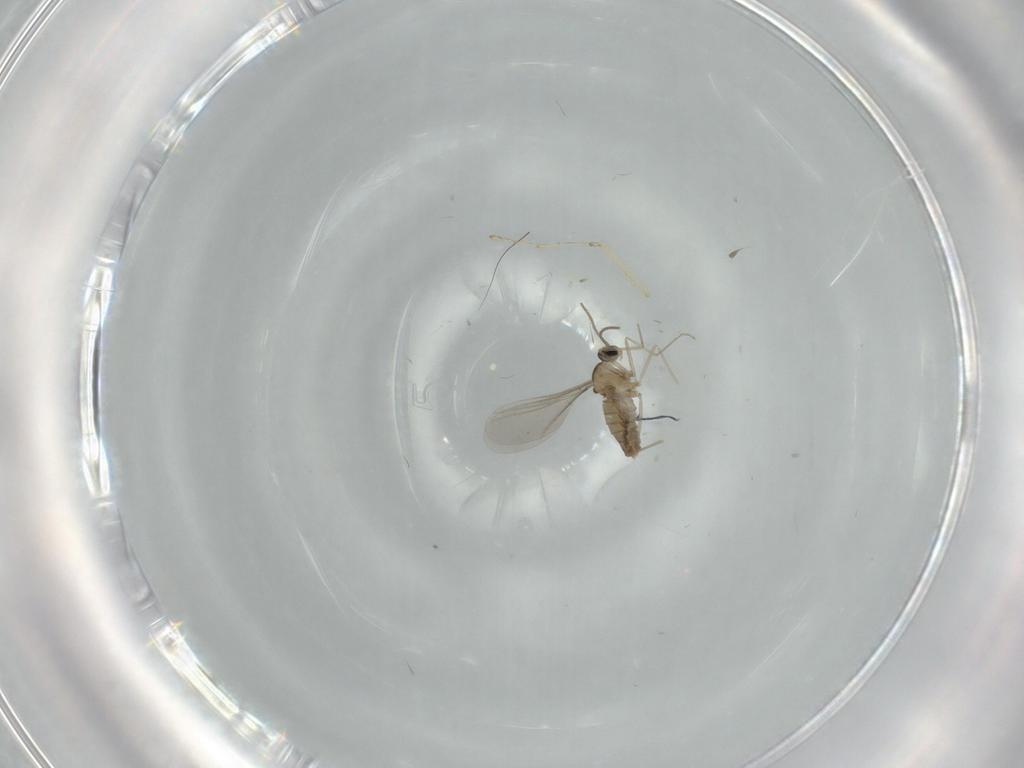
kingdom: Animalia
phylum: Arthropoda
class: Insecta
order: Diptera
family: Cecidomyiidae
